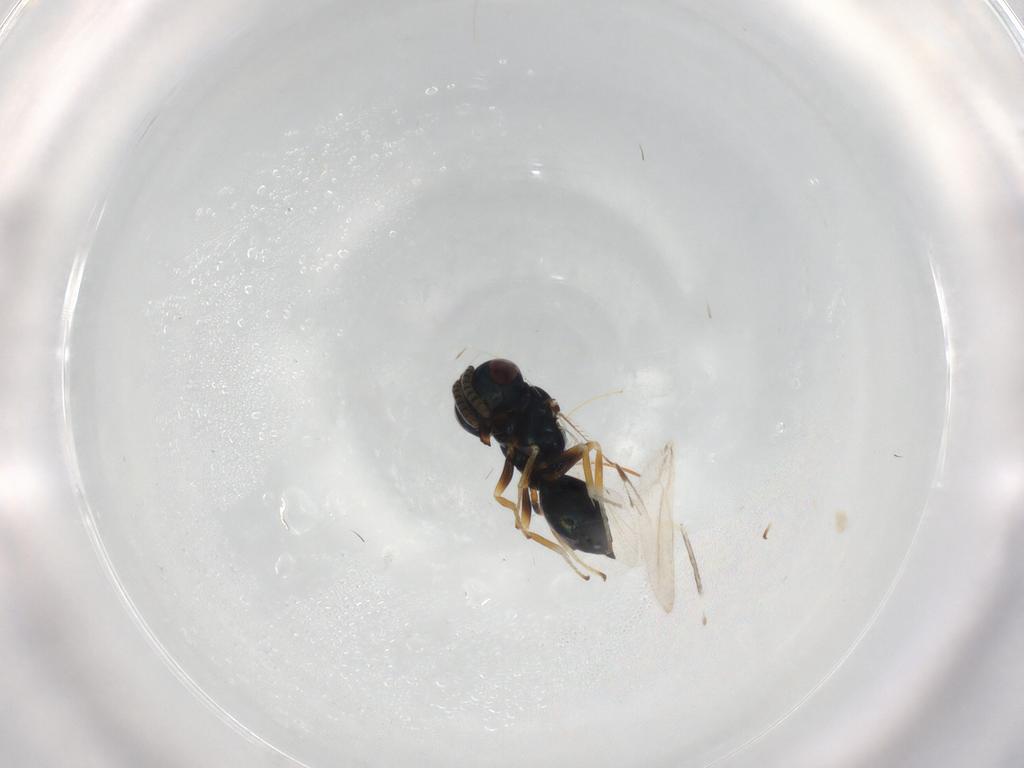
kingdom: Animalia
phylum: Arthropoda
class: Insecta
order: Hymenoptera
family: Pteromalidae
